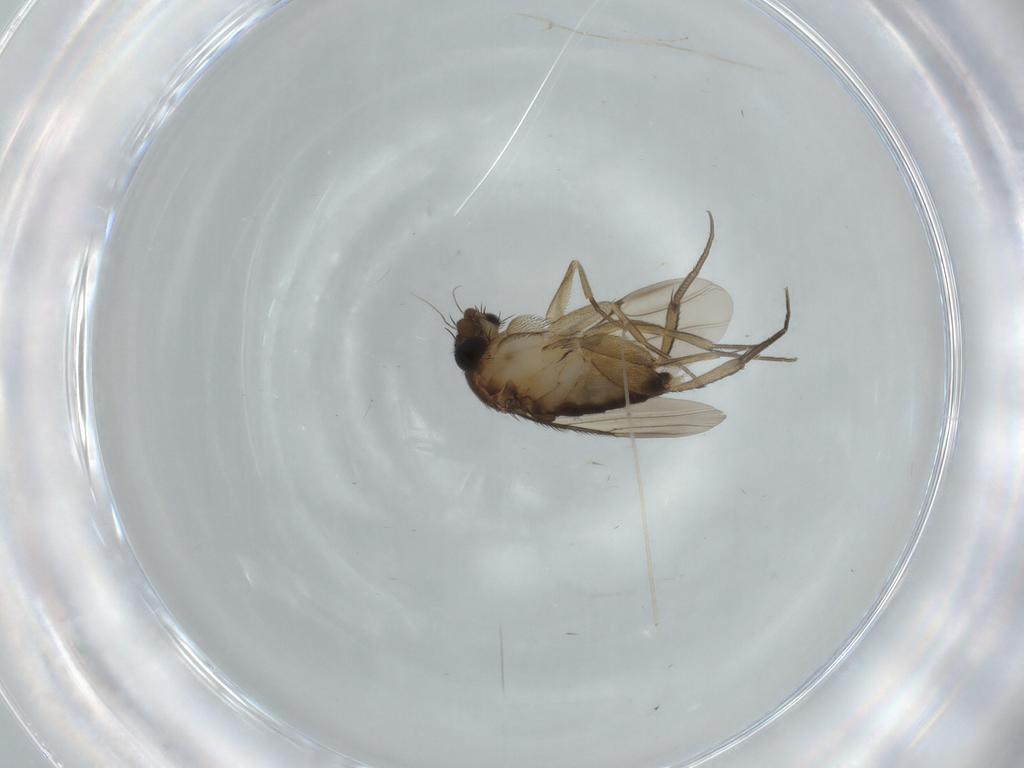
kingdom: Animalia
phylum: Arthropoda
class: Insecta
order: Diptera
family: Phoridae
